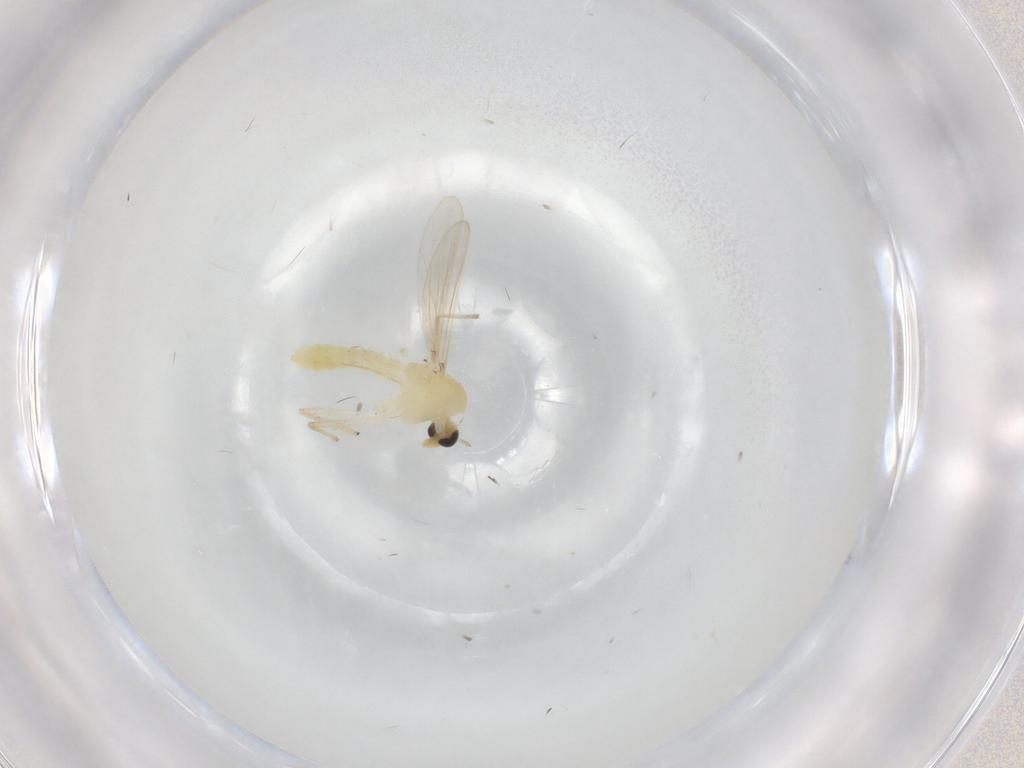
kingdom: Animalia
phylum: Arthropoda
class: Insecta
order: Diptera
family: Chironomidae
